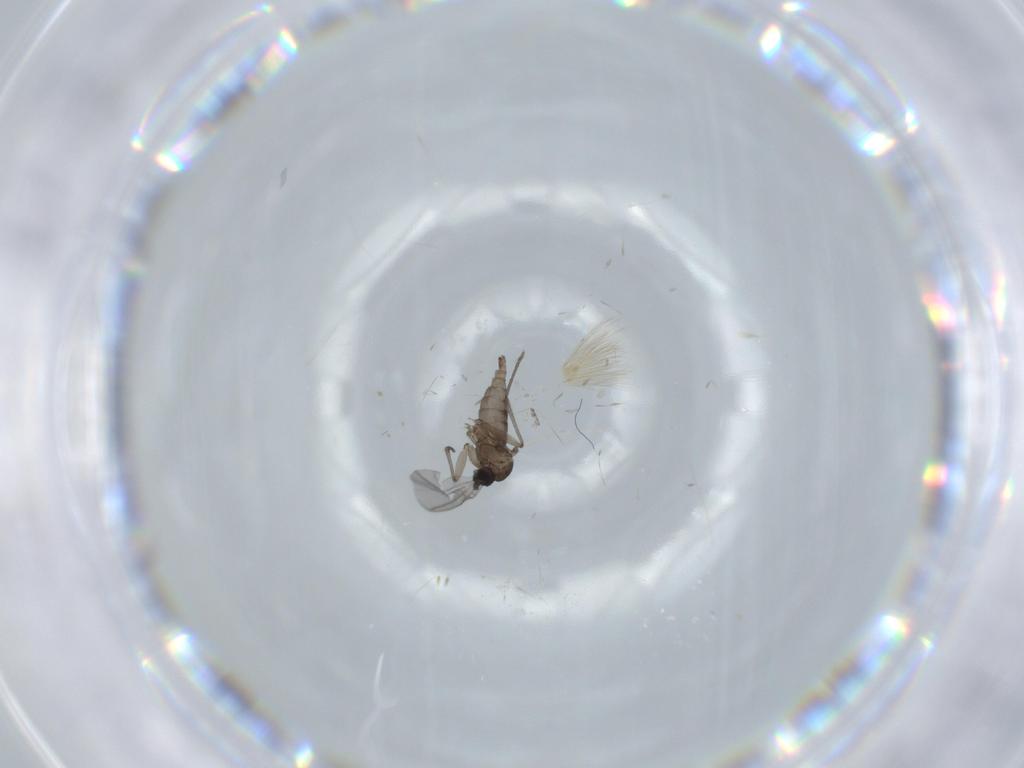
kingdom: Animalia
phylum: Arthropoda
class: Insecta
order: Diptera
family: Sciaridae
